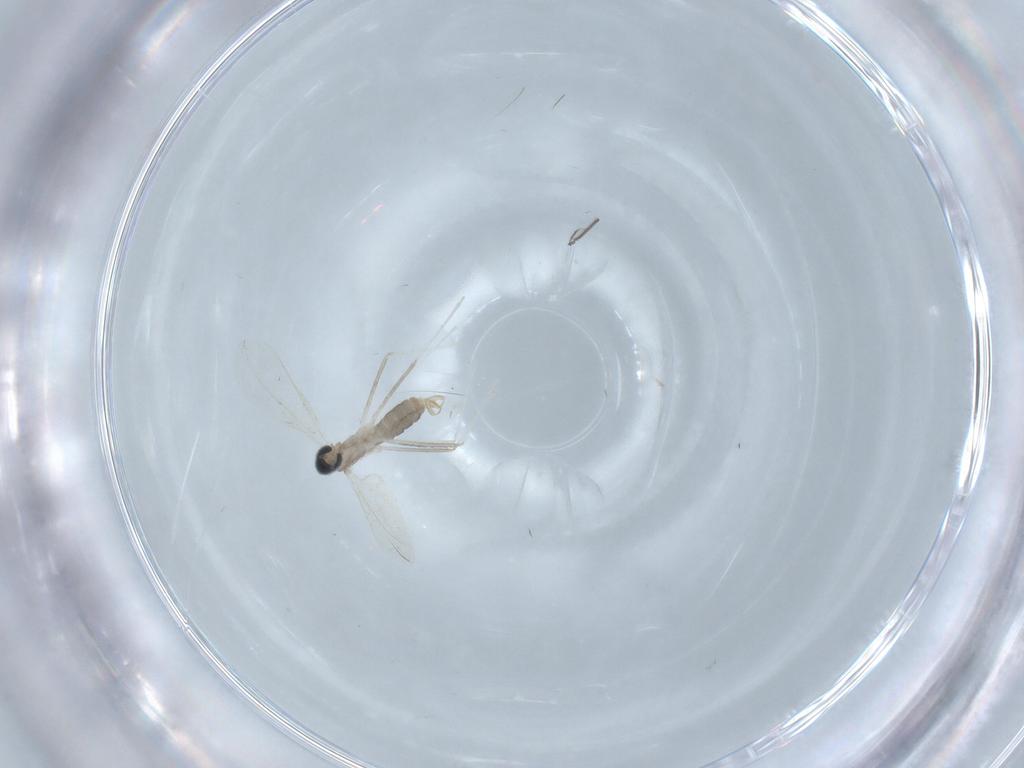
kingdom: Animalia
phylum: Arthropoda
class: Insecta
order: Diptera
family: Cecidomyiidae
